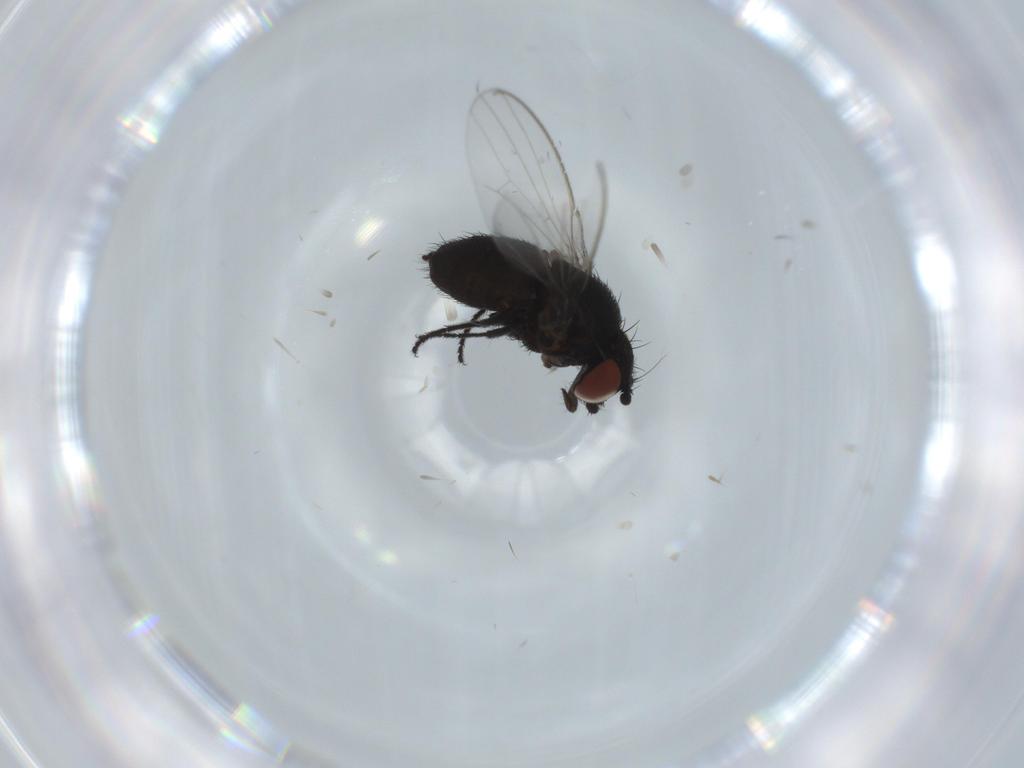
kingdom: Animalia
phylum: Arthropoda
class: Insecta
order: Diptera
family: Milichiidae
